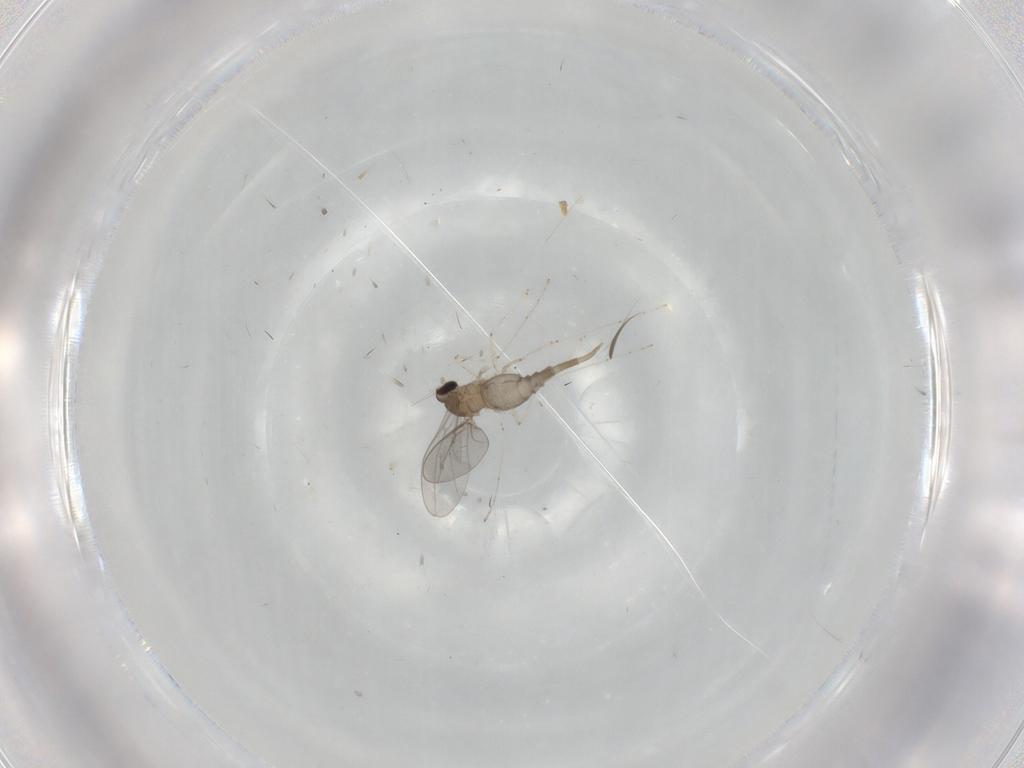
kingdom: Animalia
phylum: Arthropoda
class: Insecta
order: Diptera
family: Cecidomyiidae
